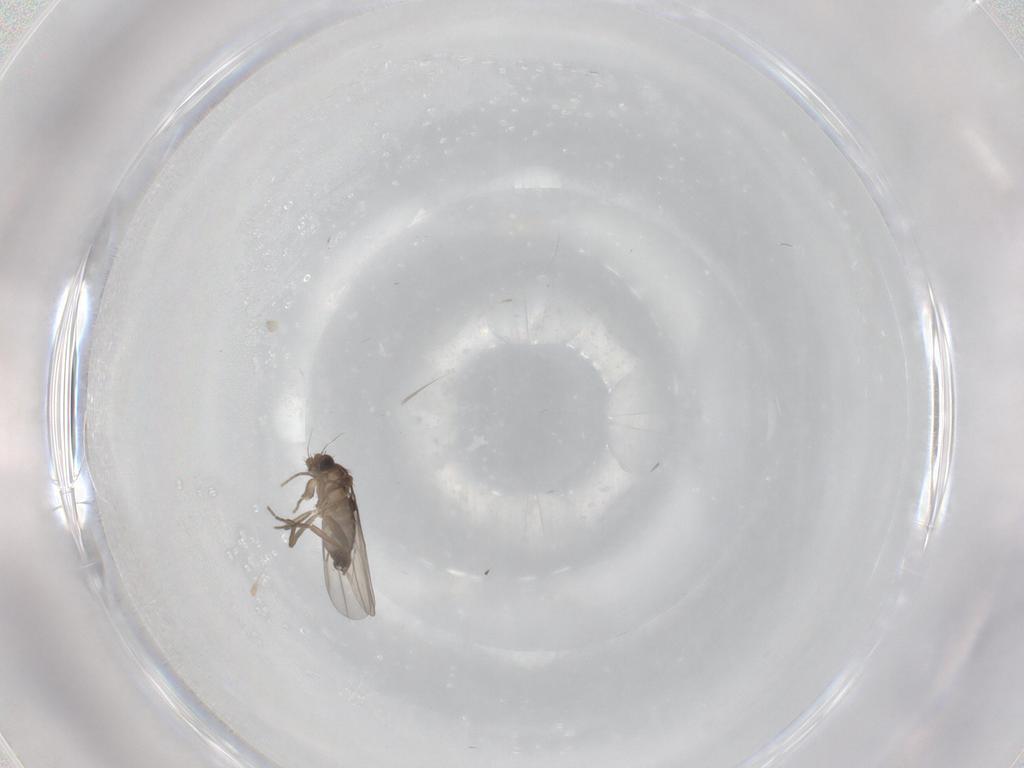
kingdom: Animalia
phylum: Arthropoda
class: Insecta
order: Diptera
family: Phoridae
